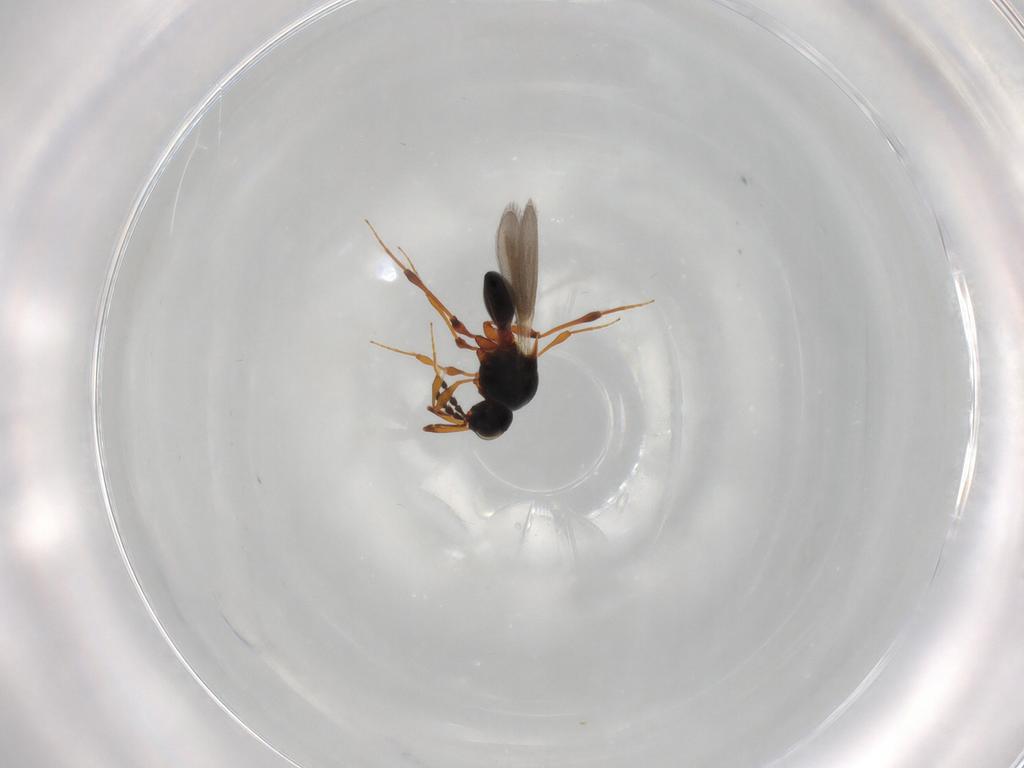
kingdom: Animalia
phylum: Arthropoda
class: Insecta
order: Hymenoptera
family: Platygastridae
